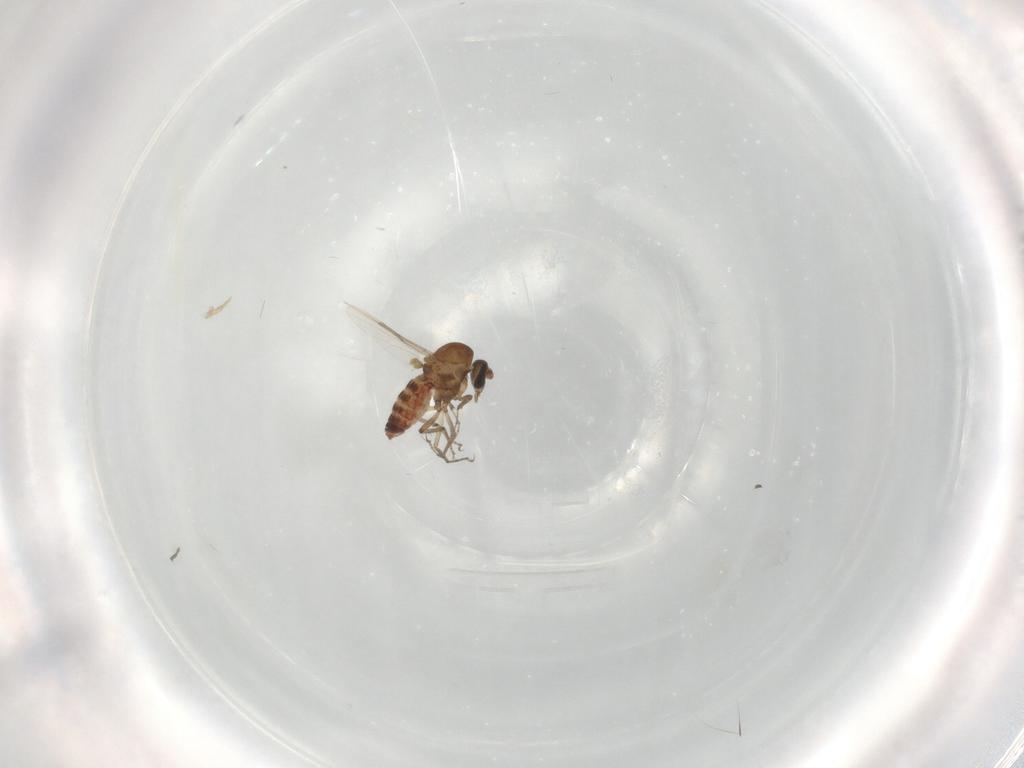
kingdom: Animalia
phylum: Arthropoda
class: Insecta
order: Diptera
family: Ceratopogonidae
